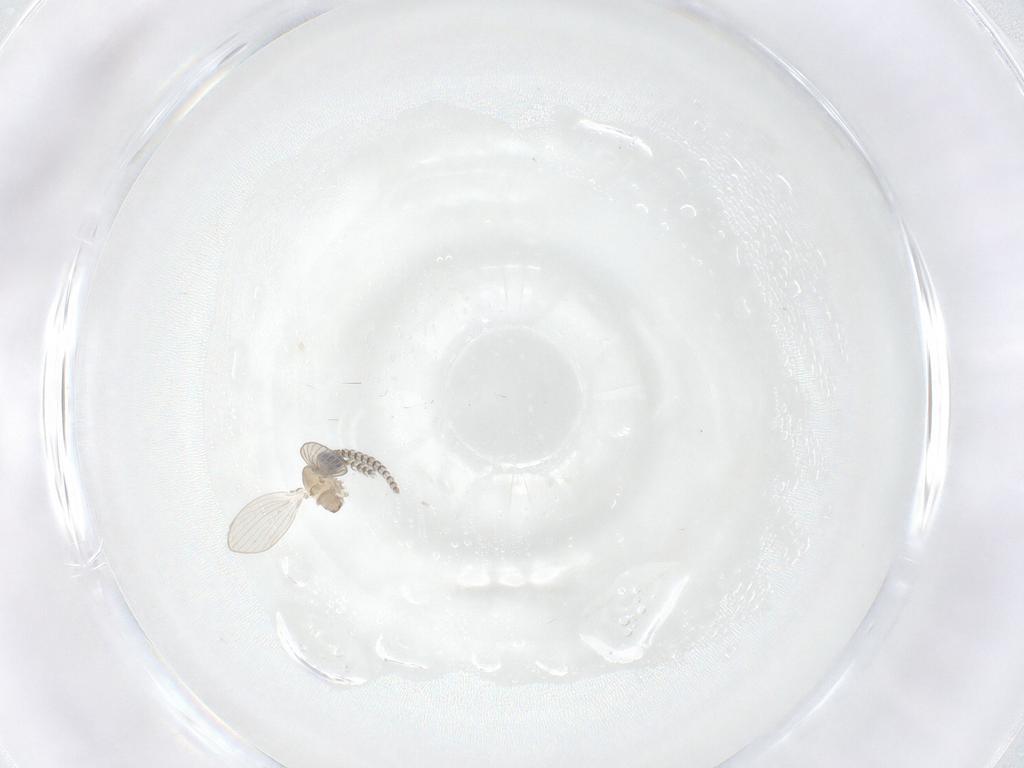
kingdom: Animalia
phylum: Arthropoda
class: Insecta
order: Diptera
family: Psychodidae
